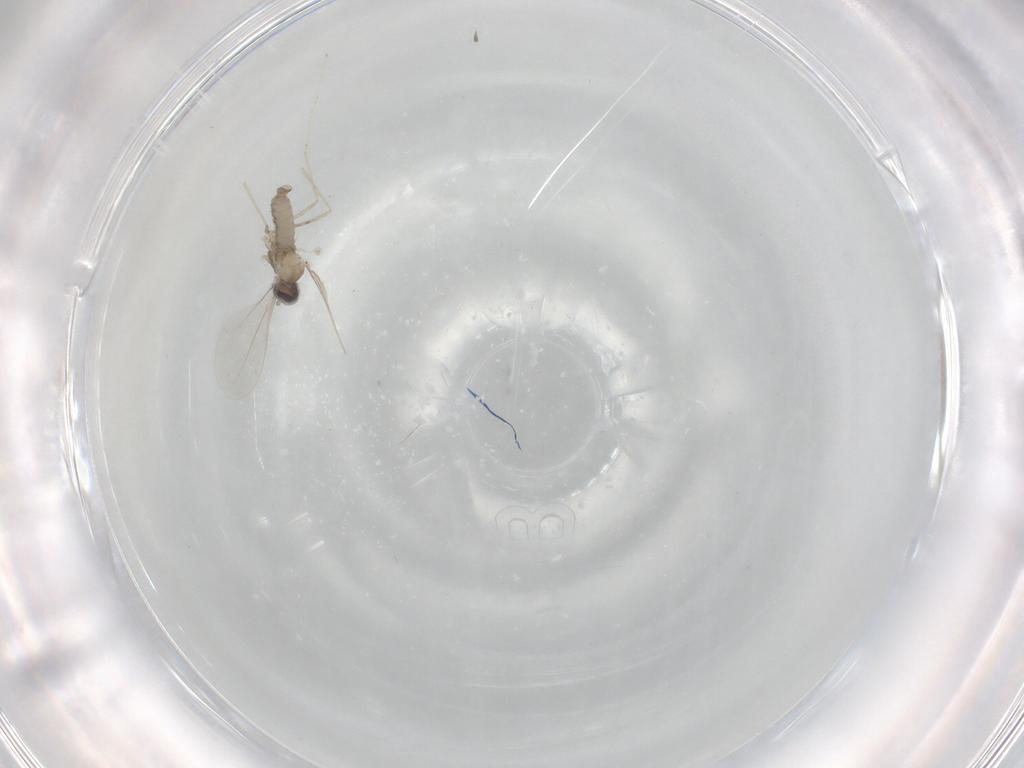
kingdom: Animalia
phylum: Arthropoda
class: Insecta
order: Diptera
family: Cecidomyiidae
